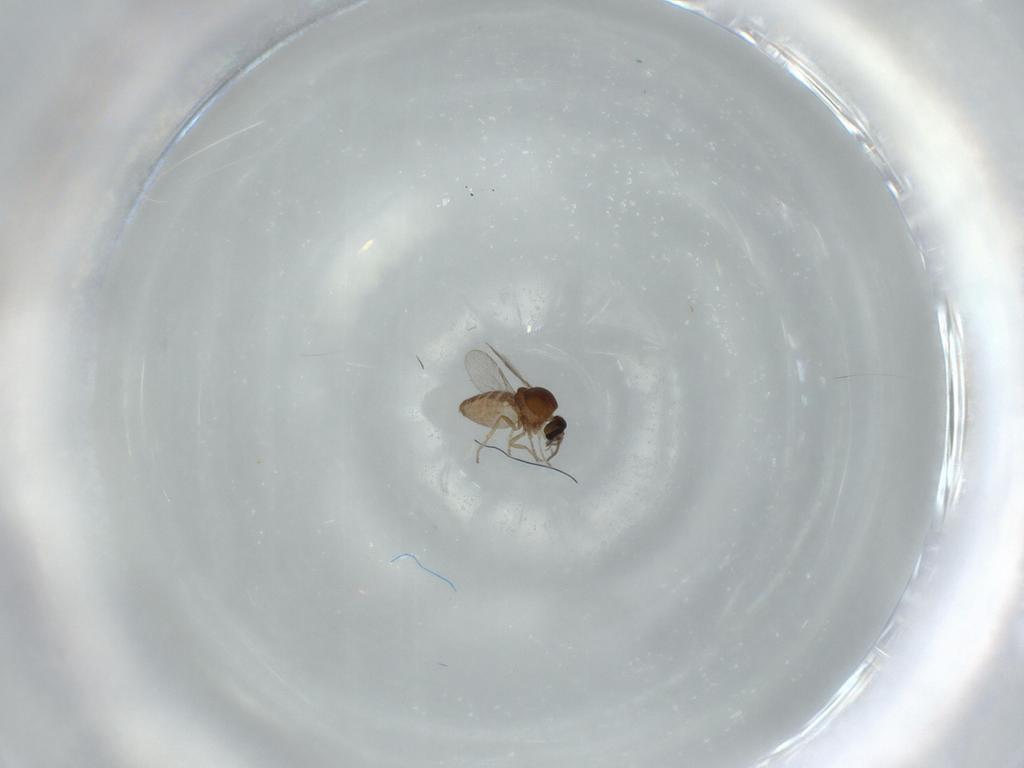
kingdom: Animalia
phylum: Arthropoda
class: Insecta
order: Diptera
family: Ceratopogonidae
